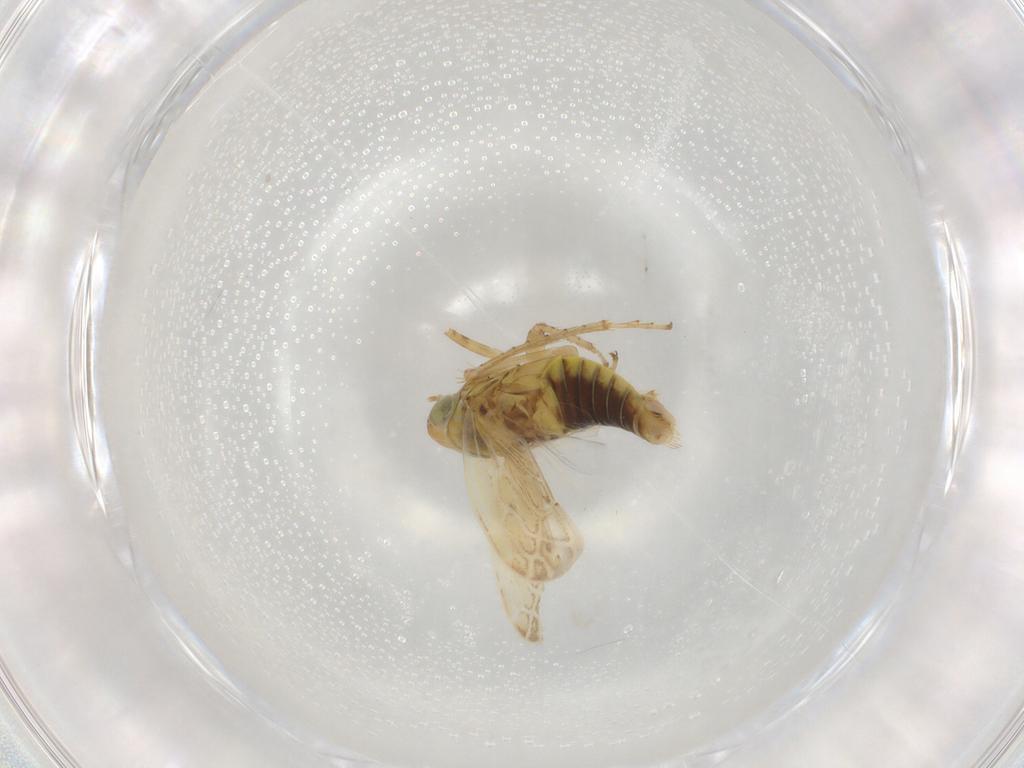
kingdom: Animalia
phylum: Arthropoda
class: Insecta
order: Hemiptera
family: Cicadellidae
